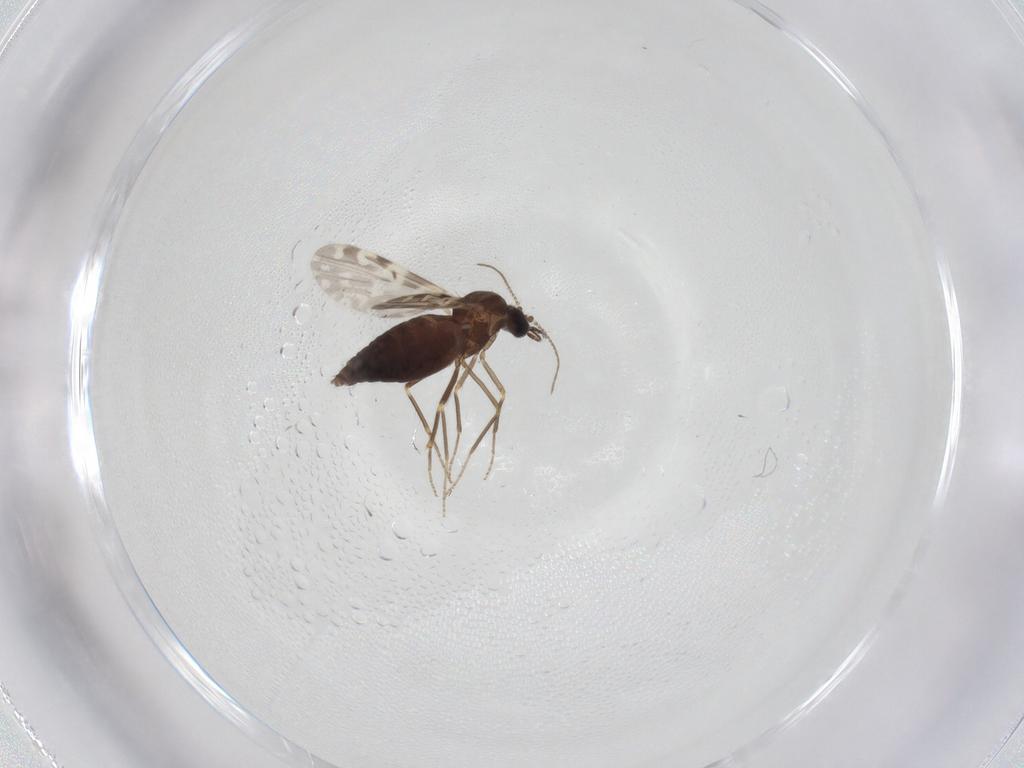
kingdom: Animalia
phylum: Arthropoda
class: Insecta
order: Diptera
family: Ceratopogonidae
